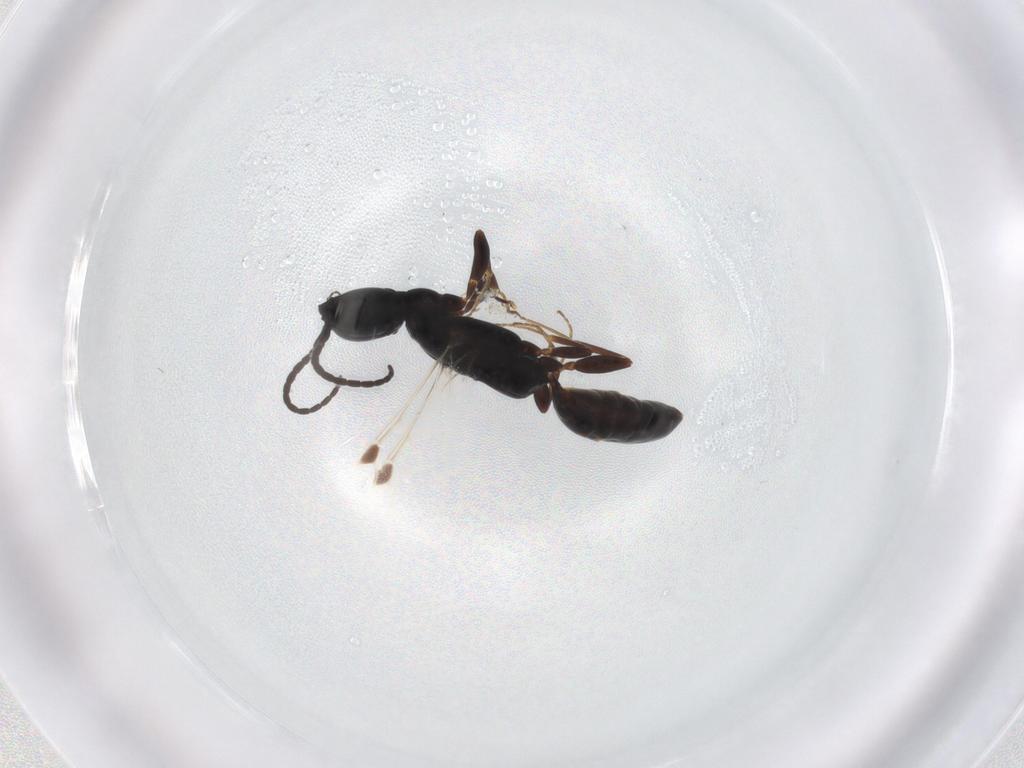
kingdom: Animalia
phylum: Arthropoda
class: Insecta
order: Hymenoptera
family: Bethylidae
